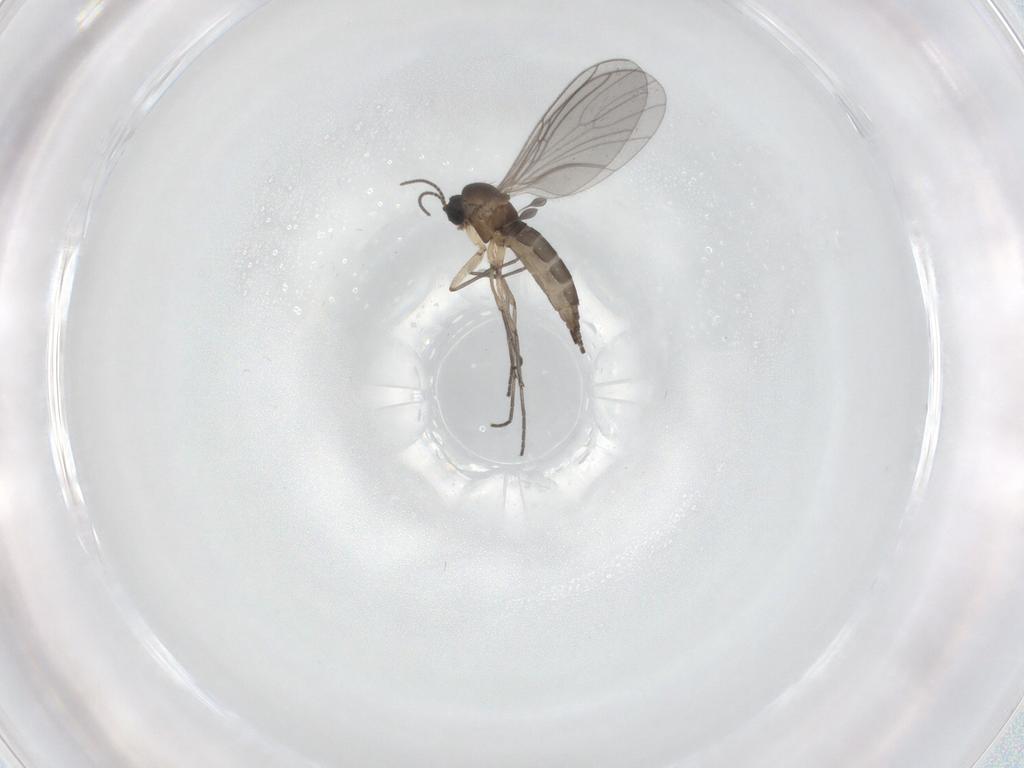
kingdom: Animalia
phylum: Arthropoda
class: Insecta
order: Diptera
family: Sciaridae
